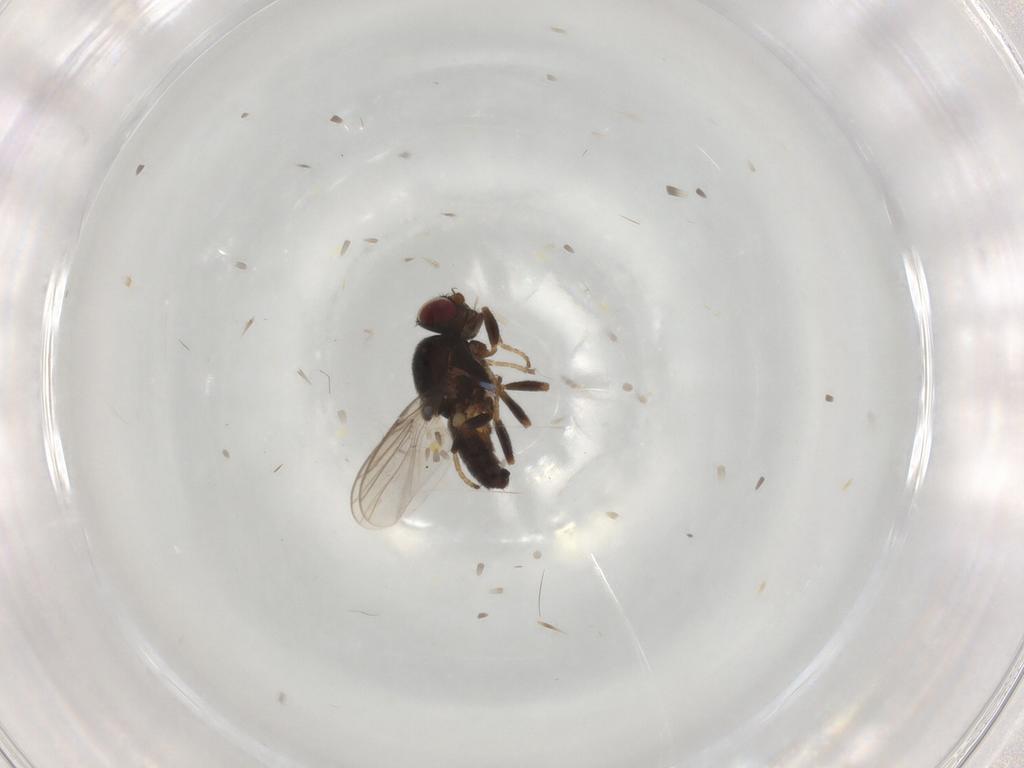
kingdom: Animalia
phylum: Arthropoda
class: Insecta
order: Diptera
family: Chloropidae
